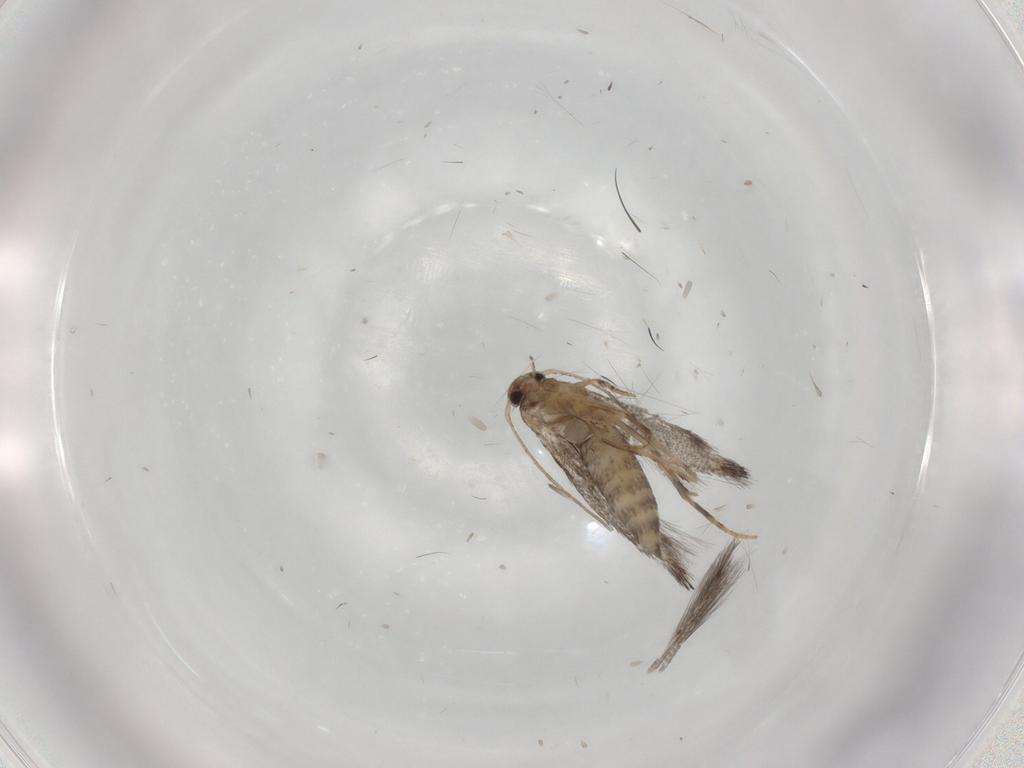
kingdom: Animalia
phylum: Arthropoda
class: Insecta
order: Lepidoptera
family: Elachistidae
